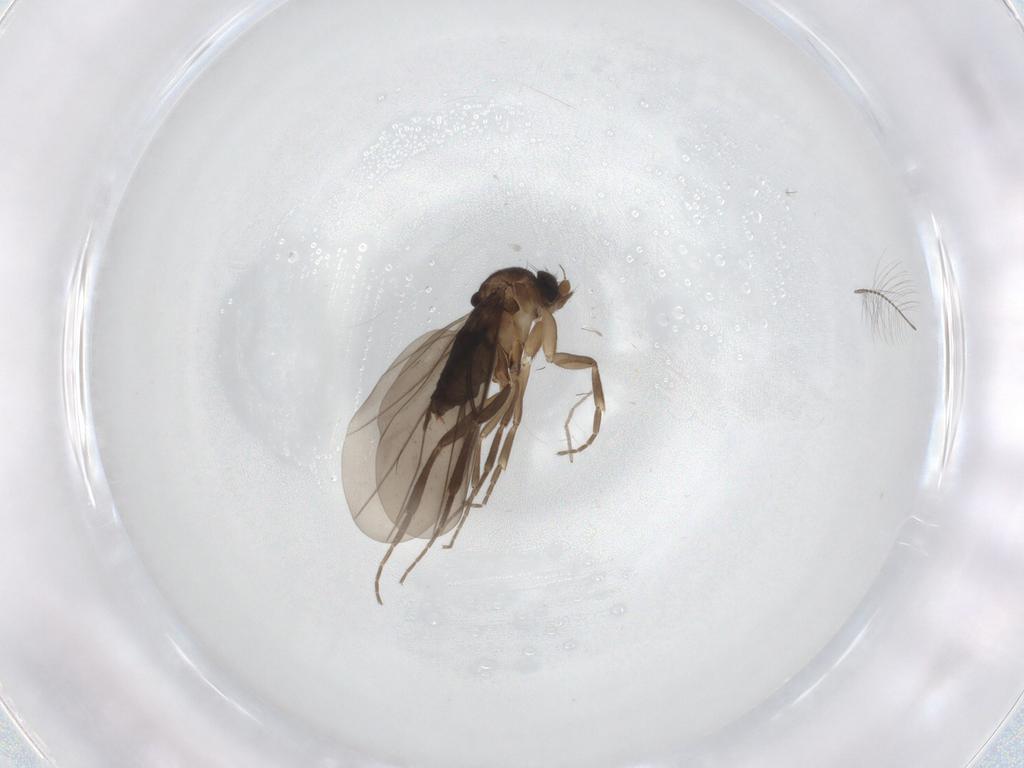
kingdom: Animalia
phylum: Arthropoda
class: Insecta
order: Diptera
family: Phoridae
